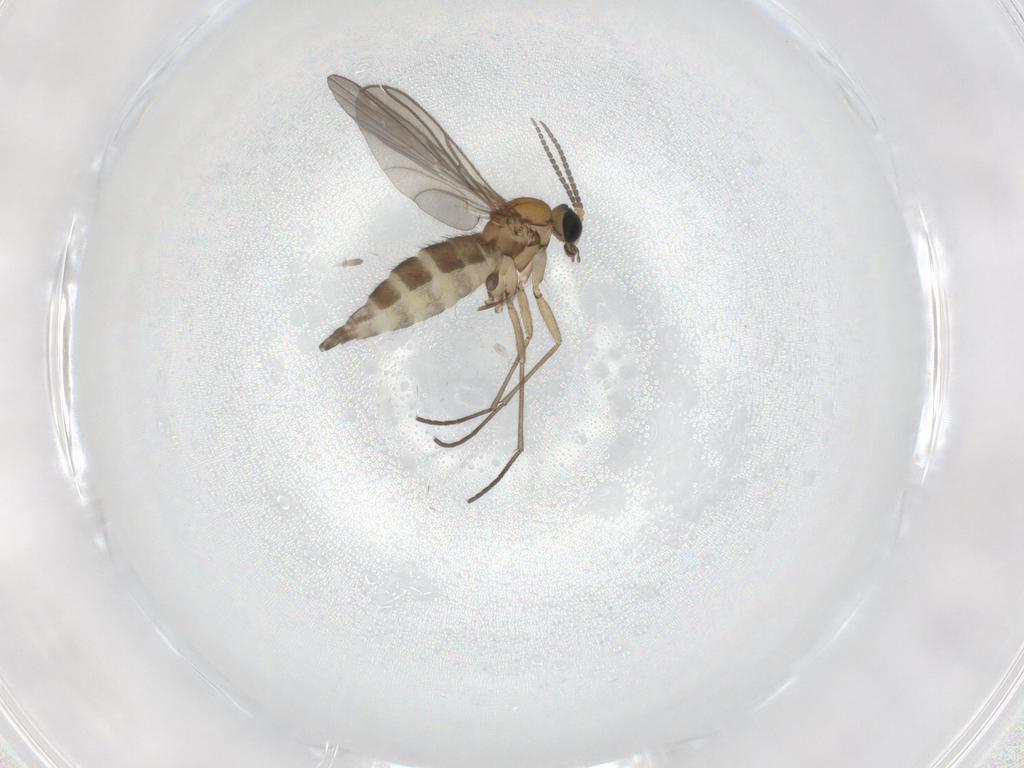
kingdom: Animalia
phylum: Arthropoda
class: Insecta
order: Diptera
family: Sciaridae
